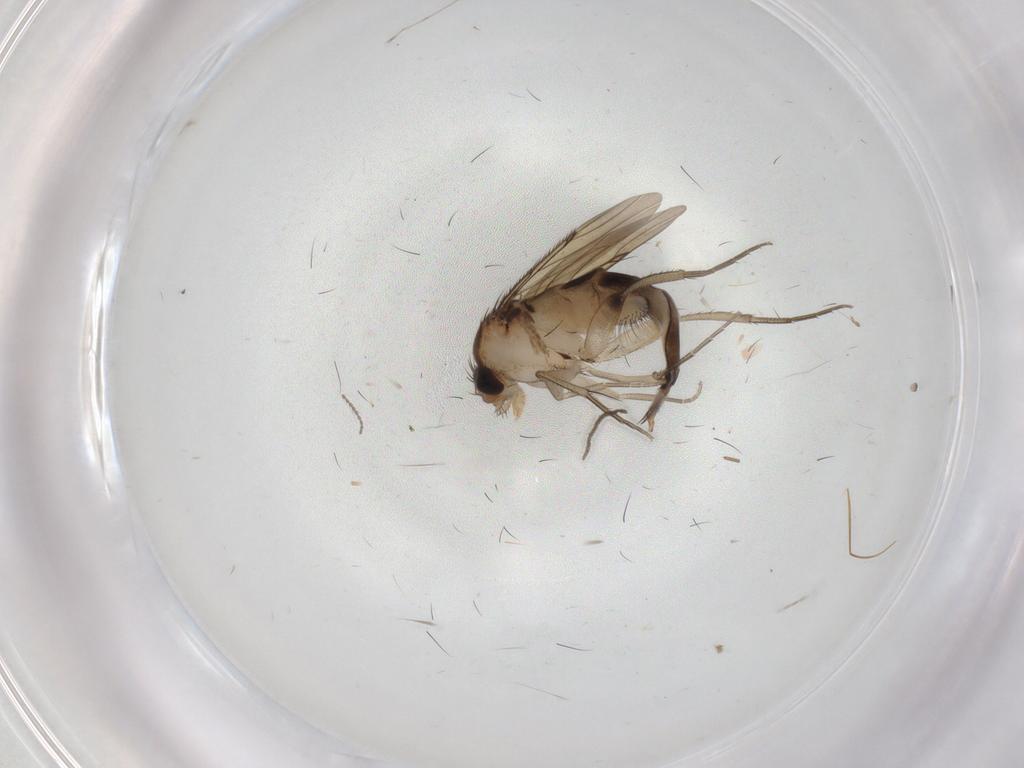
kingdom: Animalia
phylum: Arthropoda
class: Insecta
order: Diptera
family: Phoridae
